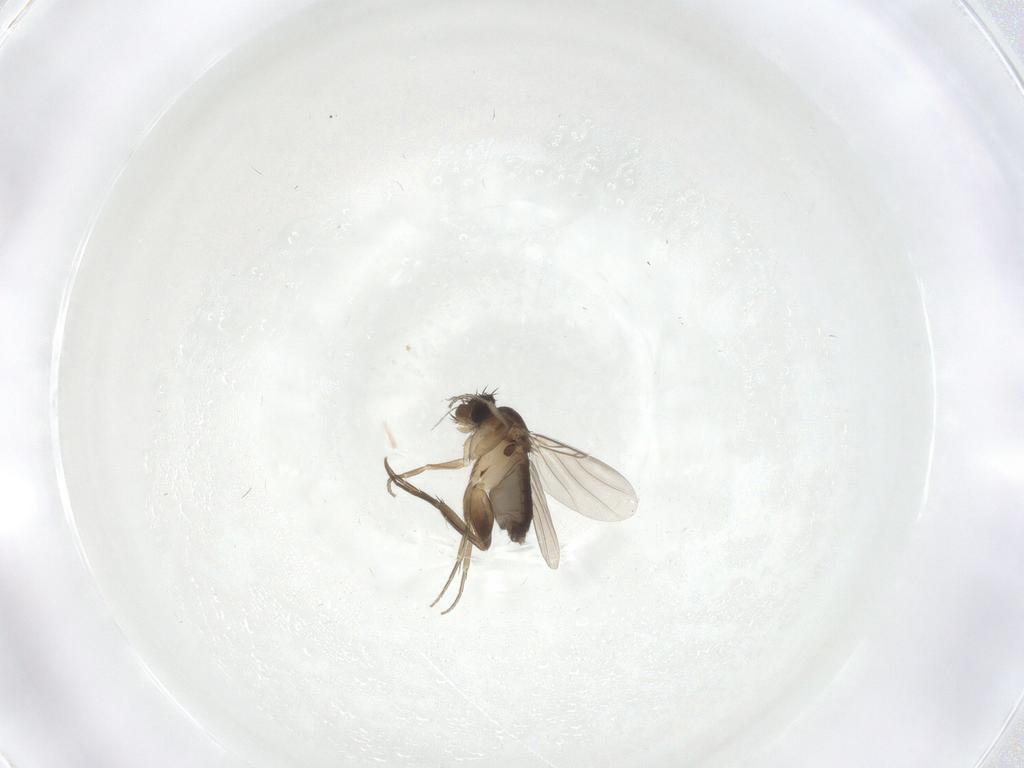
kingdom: Animalia
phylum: Arthropoda
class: Insecta
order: Diptera
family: Phoridae
